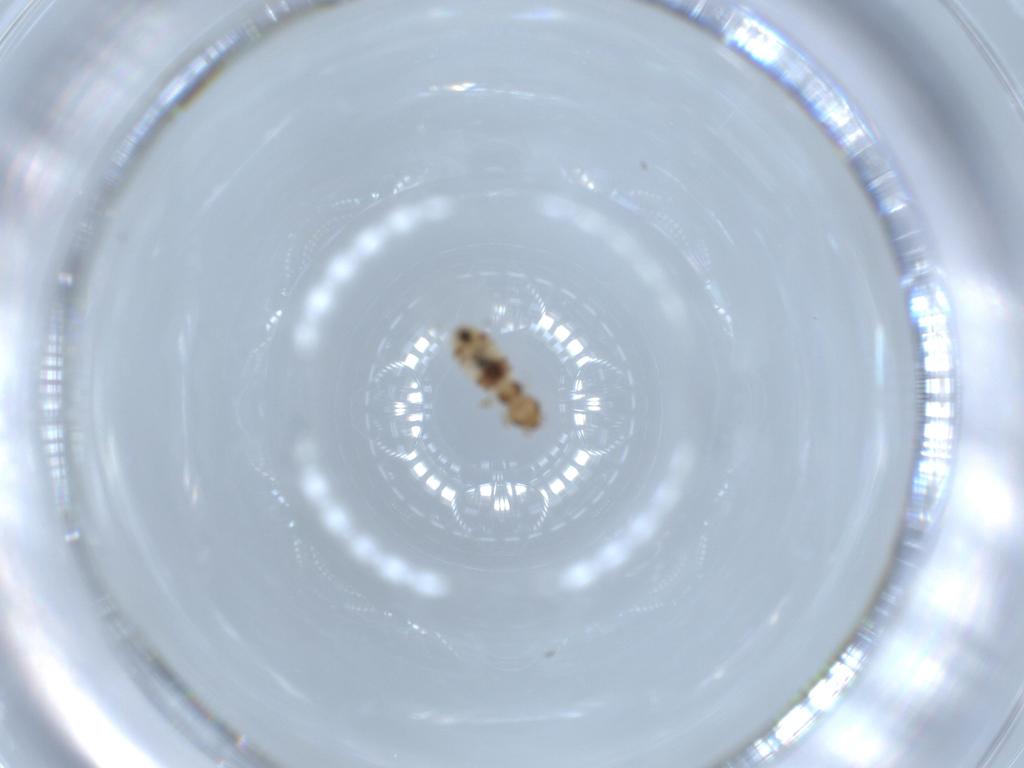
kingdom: Animalia
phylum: Arthropoda
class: Insecta
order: Psocodea
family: Liposcelididae
